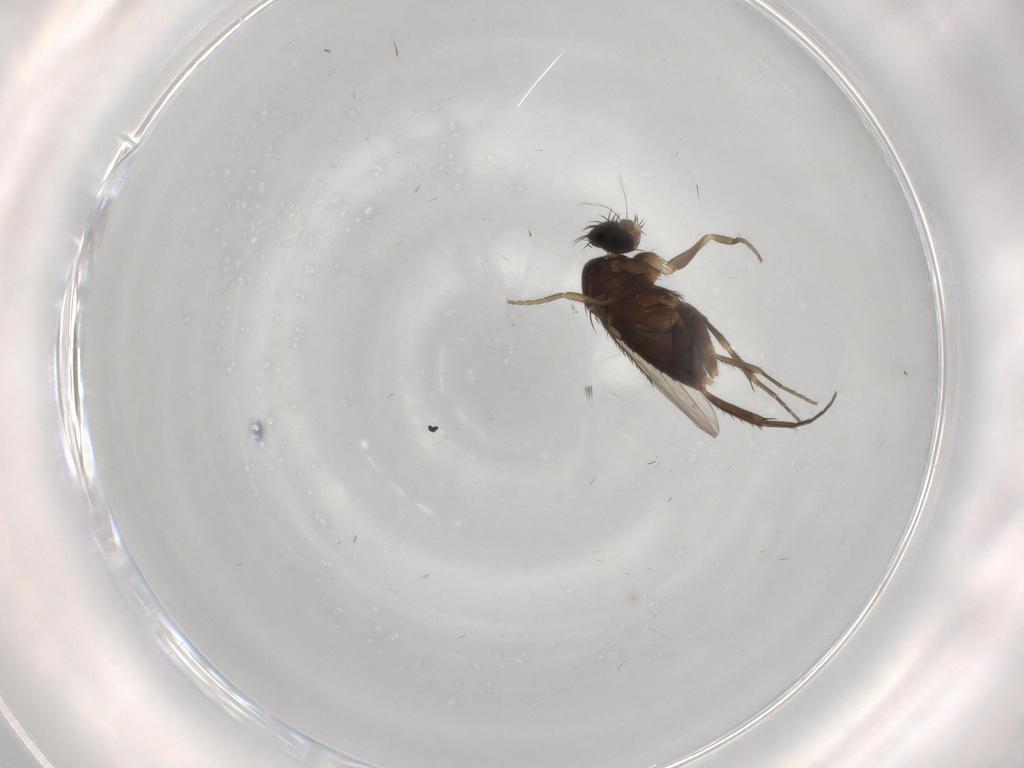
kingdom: Animalia
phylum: Arthropoda
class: Insecta
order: Diptera
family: Phoridae
